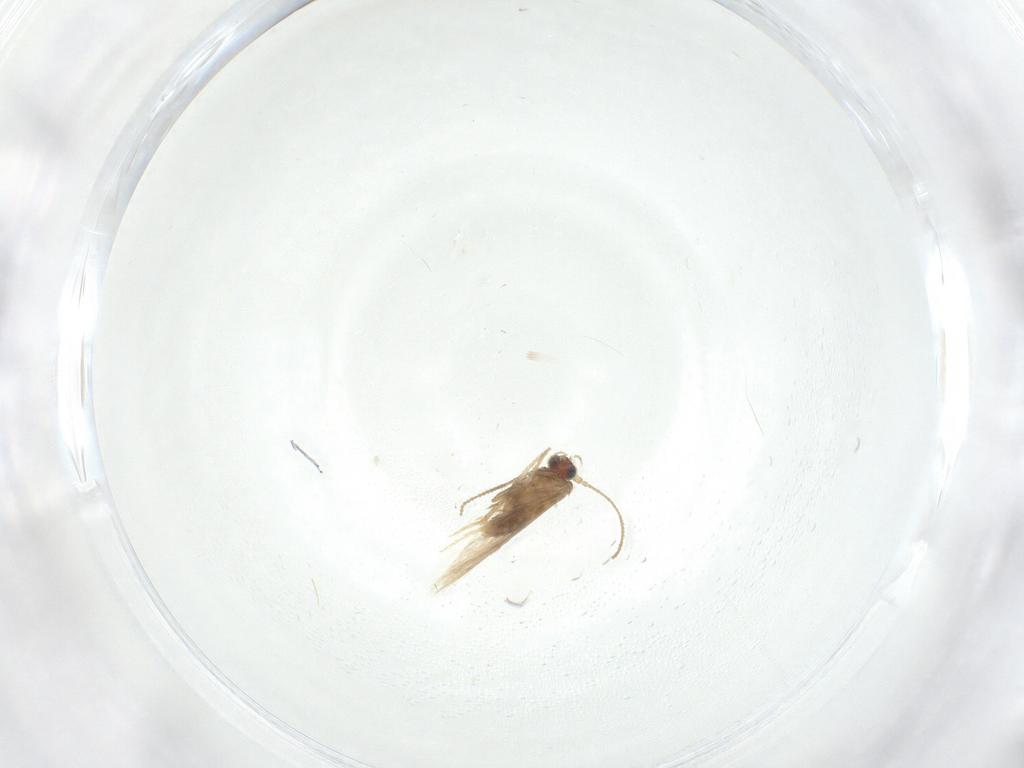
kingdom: Animalia
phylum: Arthropoda
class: Insecta
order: Lepidoptera
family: Nepticulidae
